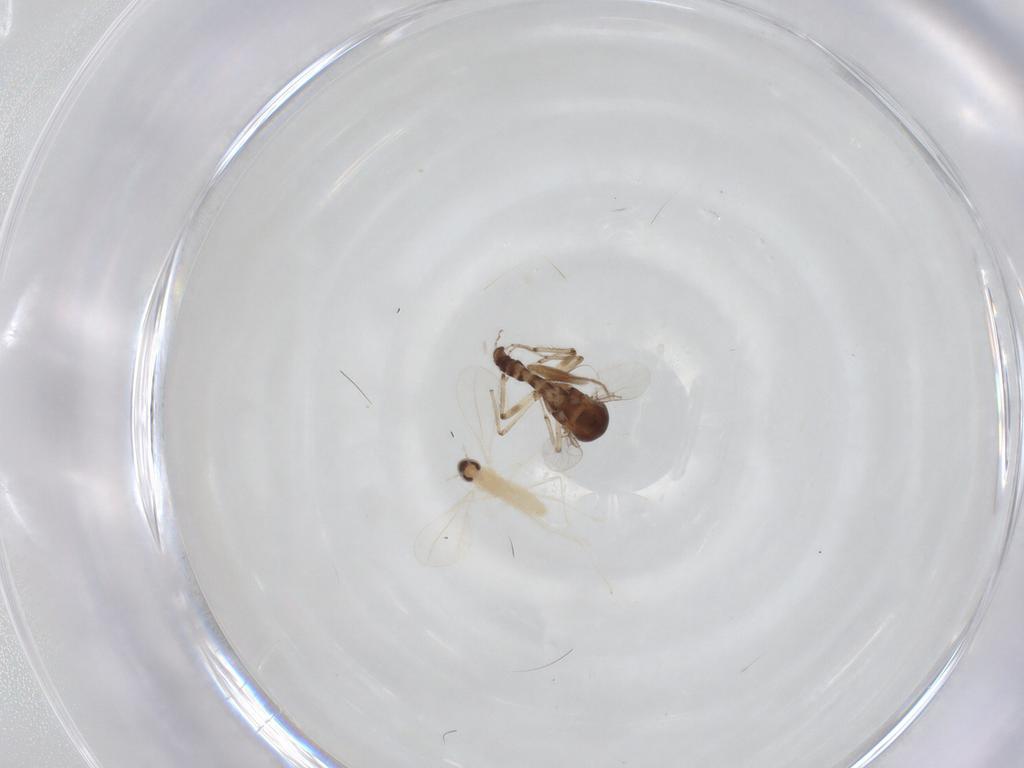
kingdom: Animalia
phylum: Arthropoda
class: Insecta
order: Diptera
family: Ceratopogonidae
